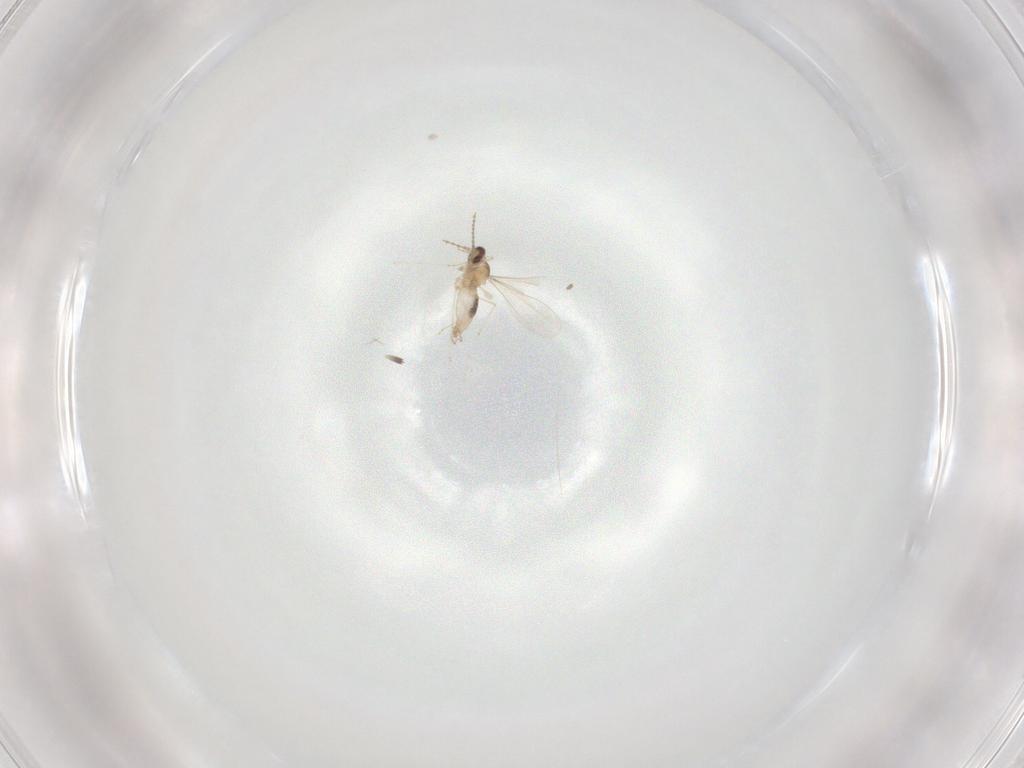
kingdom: Animalia
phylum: Arthropoda
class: Insecta
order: Diptera
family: Cecidomyiidae
